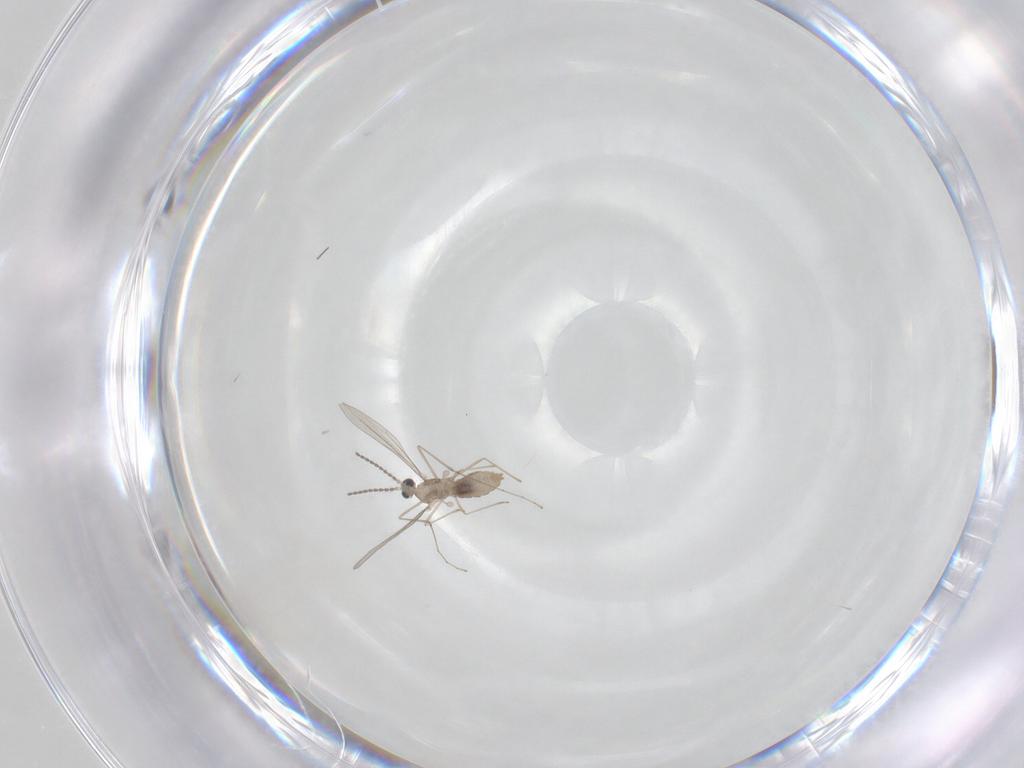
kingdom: Animalia
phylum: Arthropoda
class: Insecta
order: Diptera
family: Cecidomyiidae
